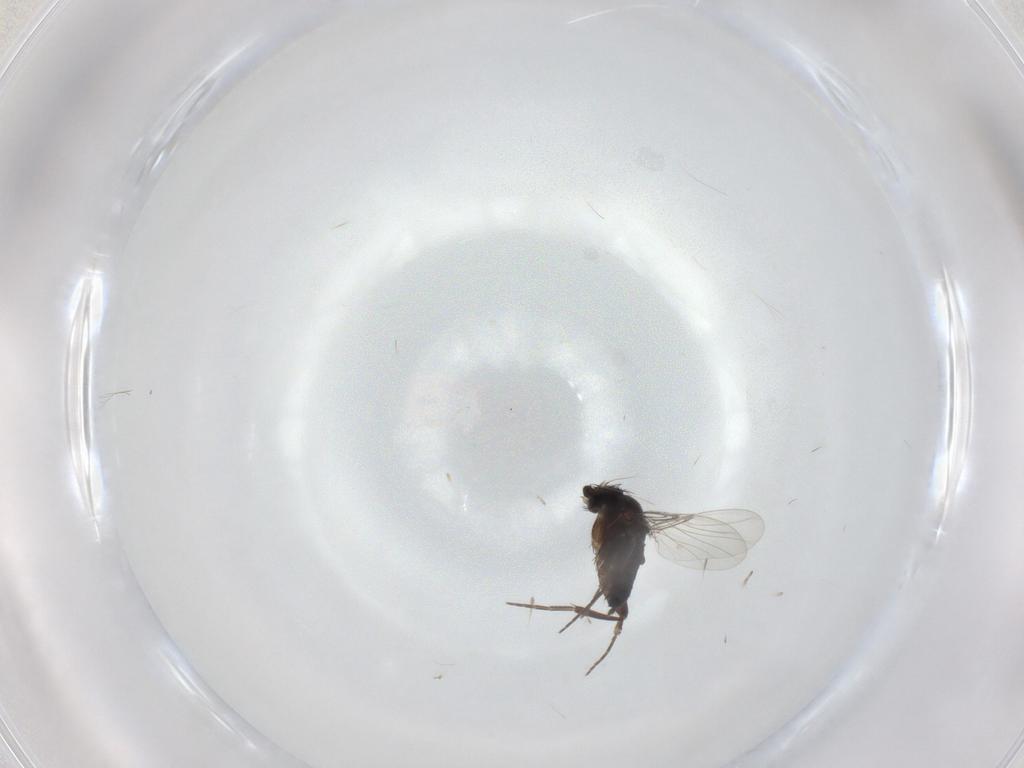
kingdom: Animalia
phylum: Arthropoda
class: Insecta
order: Diptera
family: Phoridae
